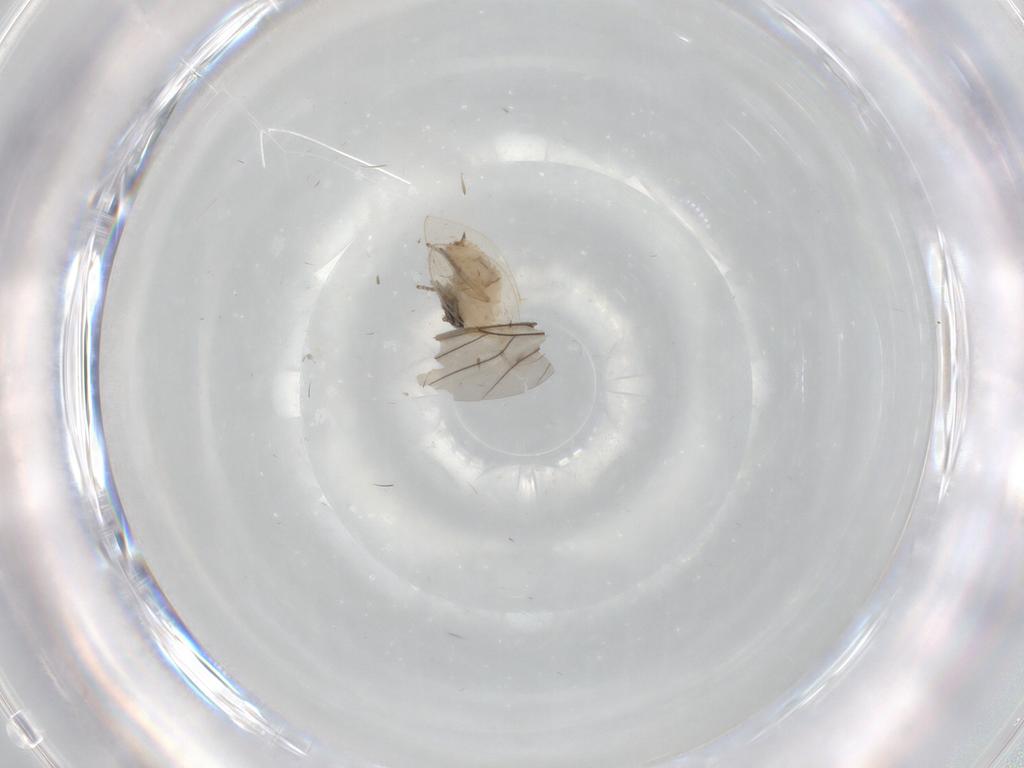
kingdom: Animalia
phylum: Arthropoda
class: Insecta
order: Diptera
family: Psychodidae
